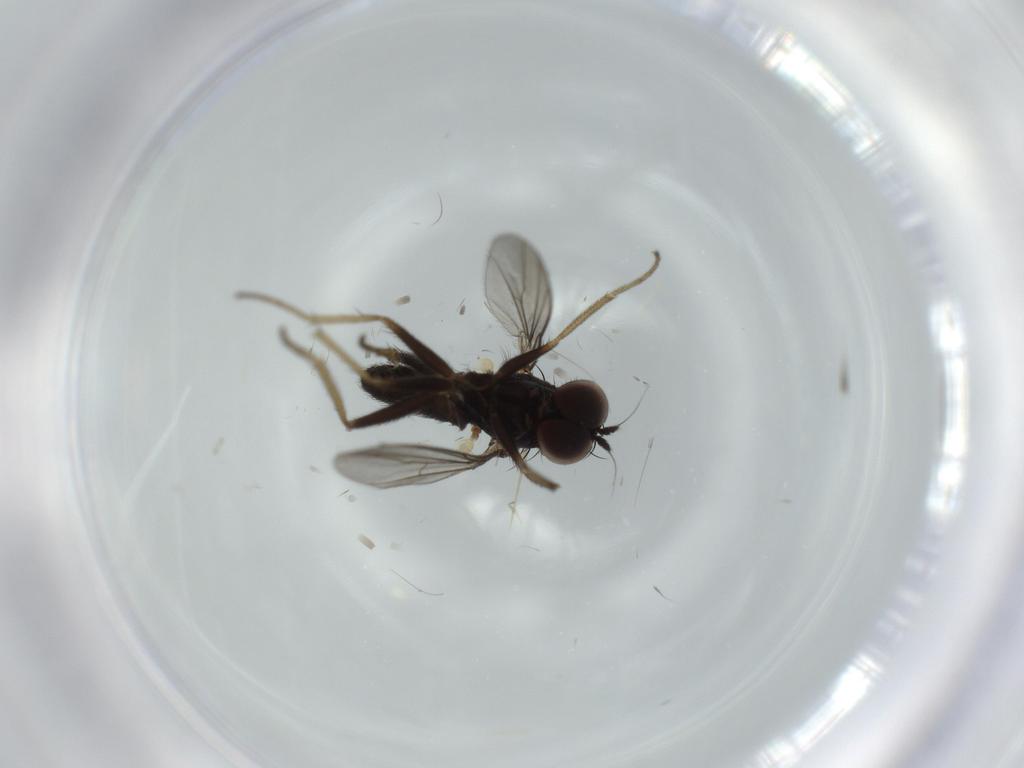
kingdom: Animalia
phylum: Arthropoda
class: Insecta
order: Diptera
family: Dolichopodidae
